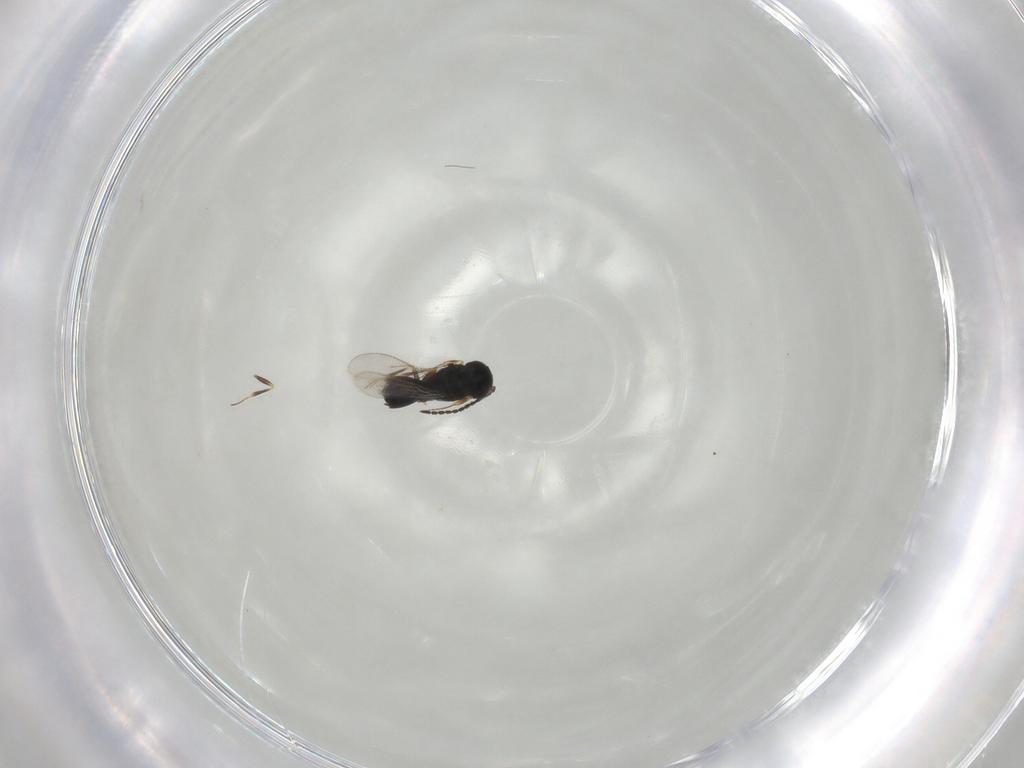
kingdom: Animalia
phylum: Arthropoda
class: Insecta
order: Hymenoptera
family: Scelionidae
